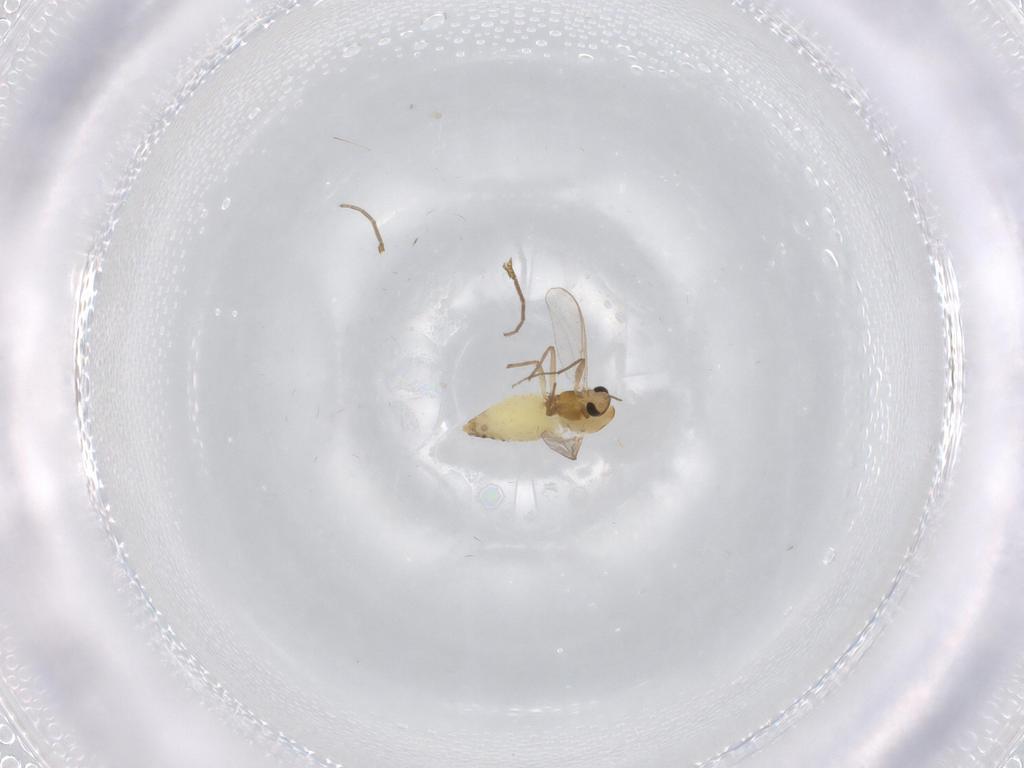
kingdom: Animalia
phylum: Arthropoda
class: Insecta
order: Diptera
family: Chironomidae
